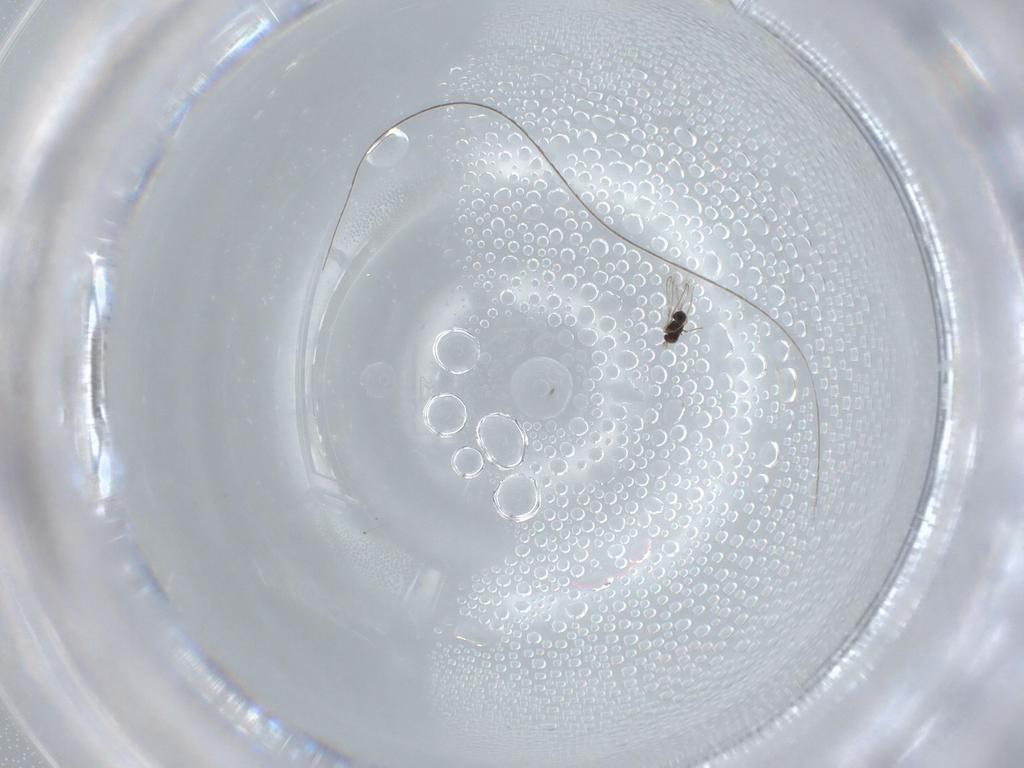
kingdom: Animalia
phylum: Arthropoda
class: Insecta
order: Hymenoptera
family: Mymaridae
